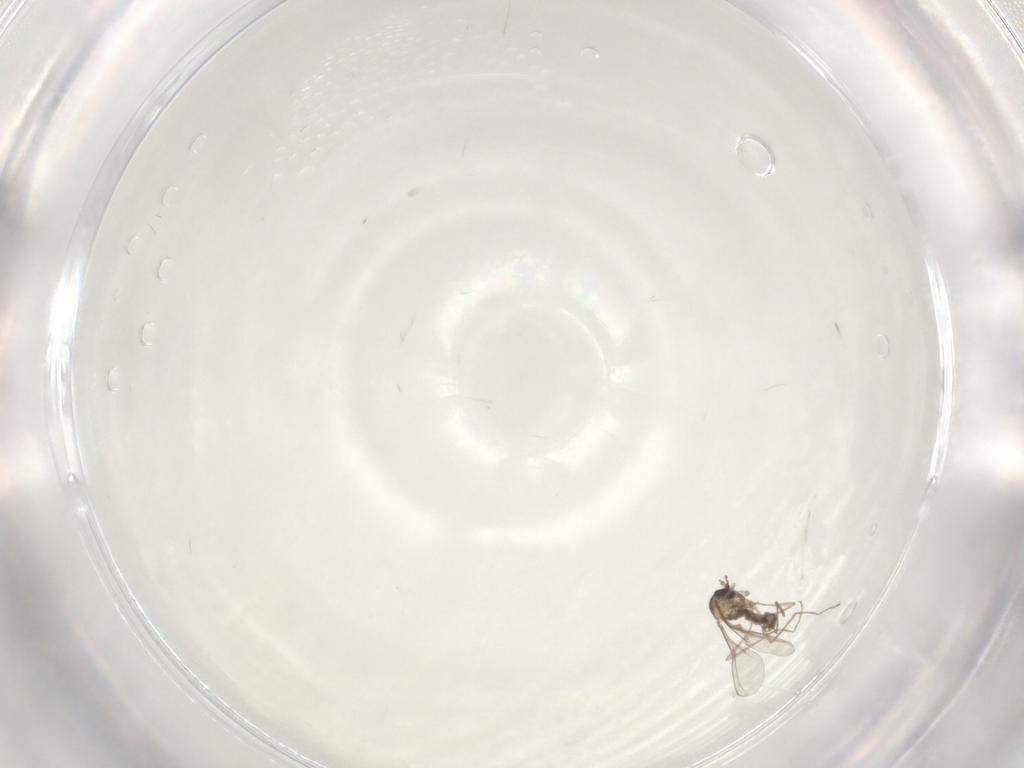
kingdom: Animalia
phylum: Arthropoda
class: Insecta
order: Diptera
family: Cecidomyiidae
